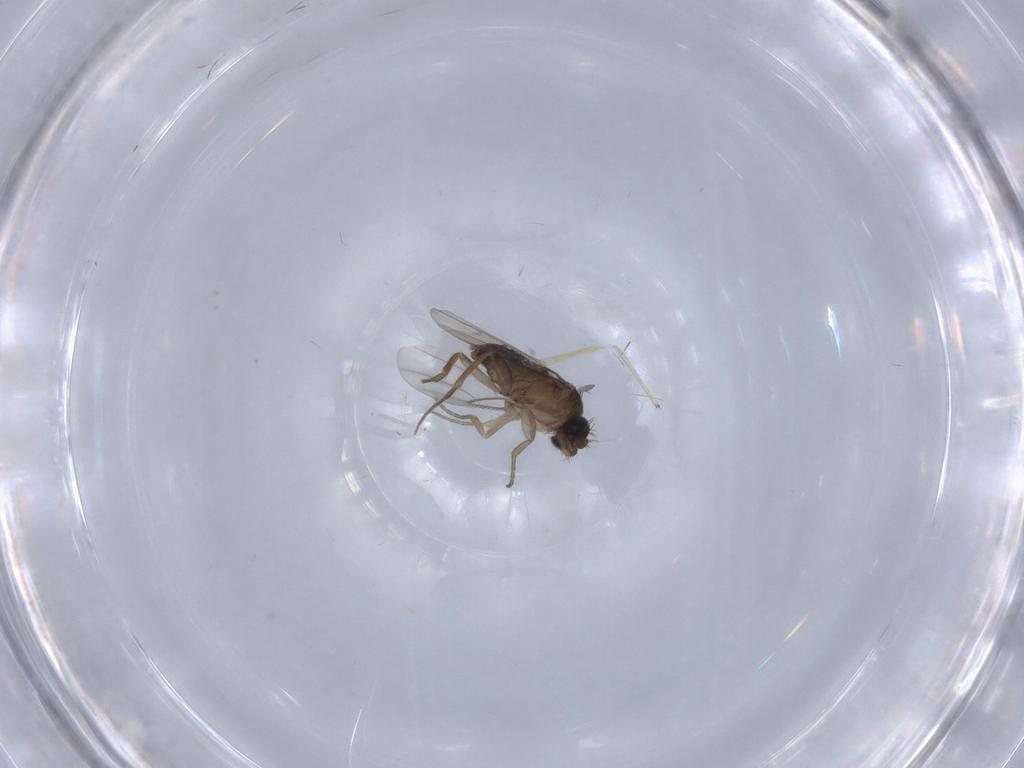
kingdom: Animalia
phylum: Arthropoda
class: Insecta
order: Diptera
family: Phoridae
